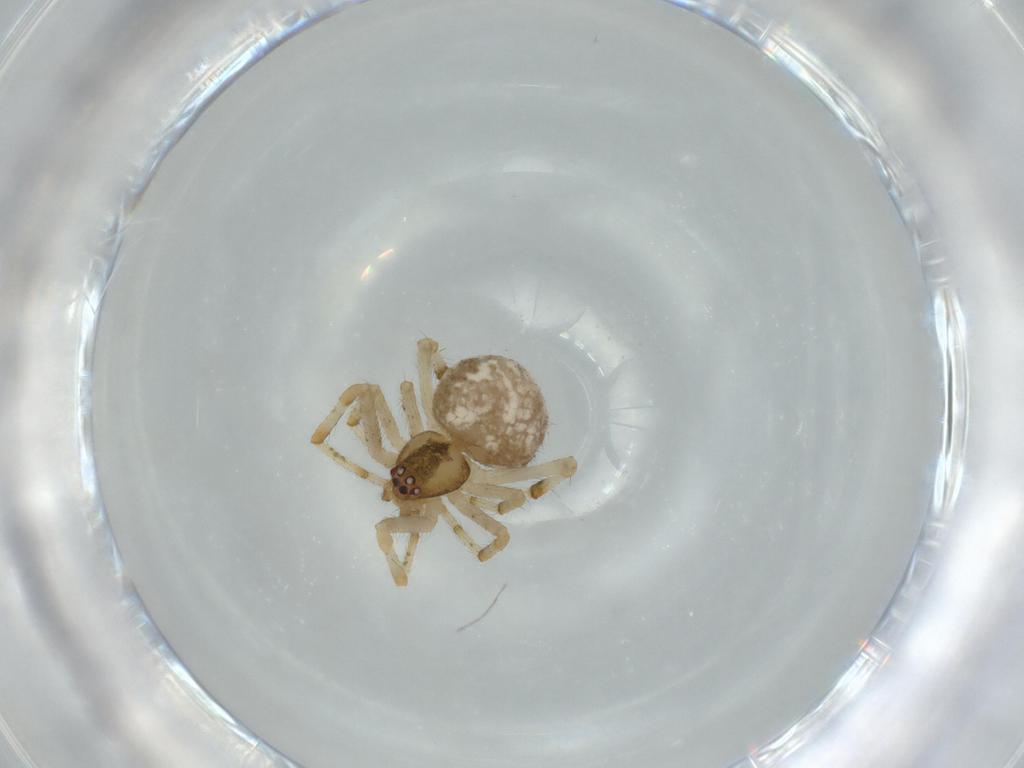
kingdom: Animalia
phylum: Arthropoda
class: Arachnida
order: Araneae
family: Theridiidae
